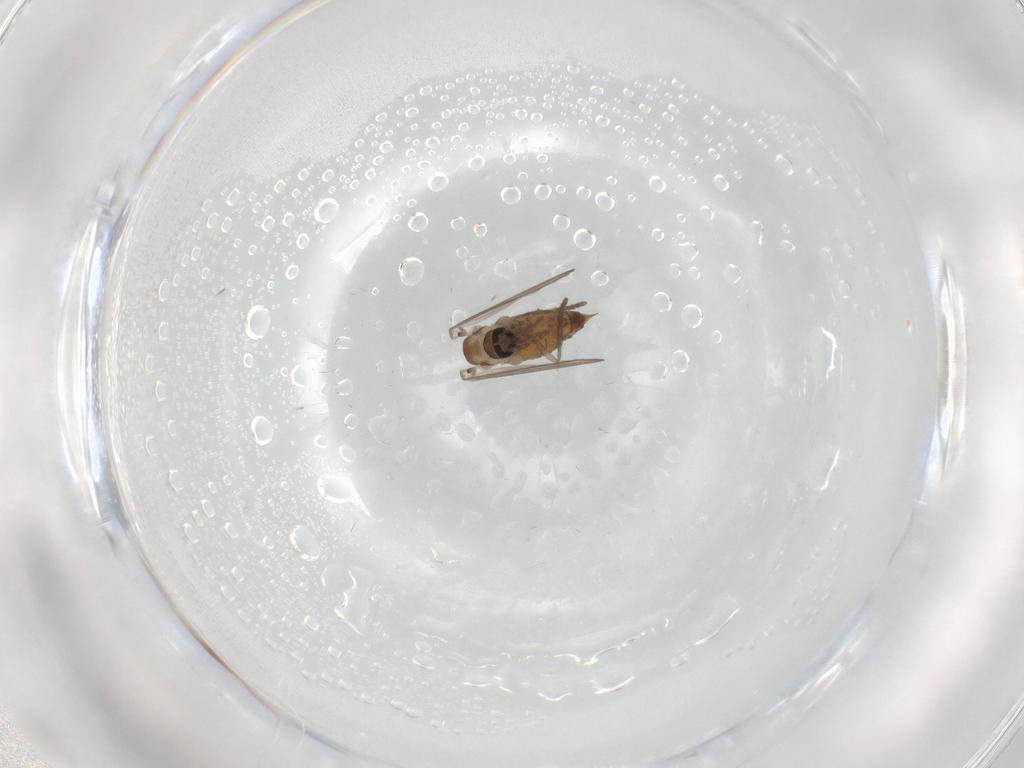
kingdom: Animalia
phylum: Arthropoda
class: Insecta
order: Diptera
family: Psychodidae
